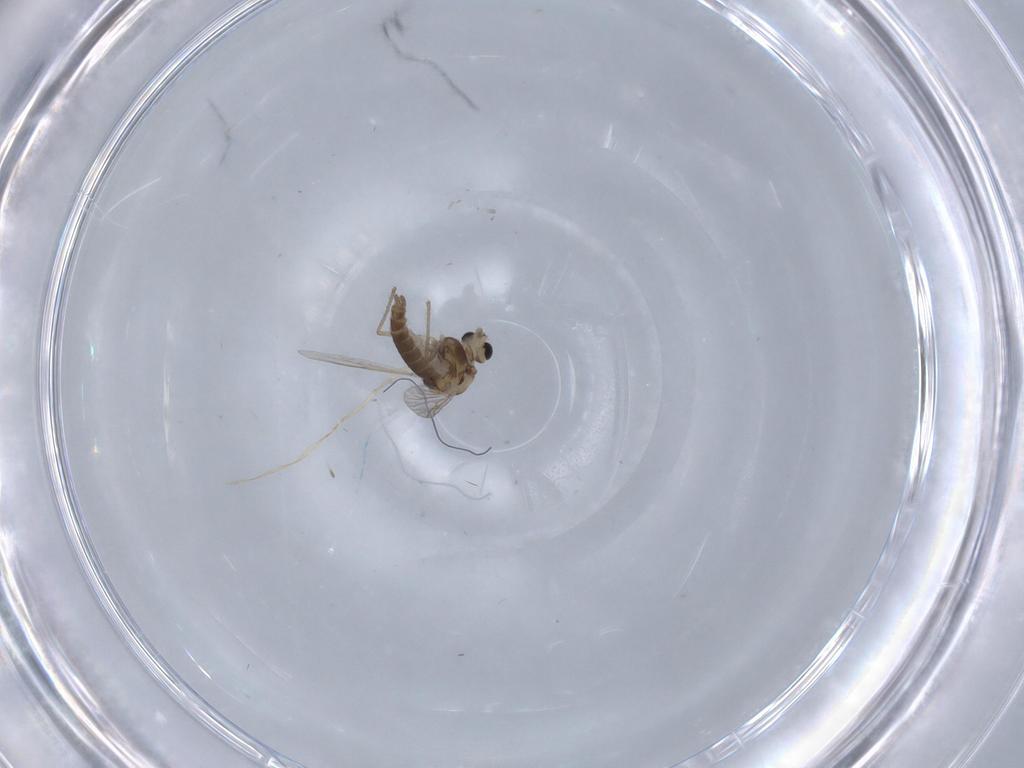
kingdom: Animalia
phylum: Arthropoda
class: Insecta
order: Diptera
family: Chironomidae
